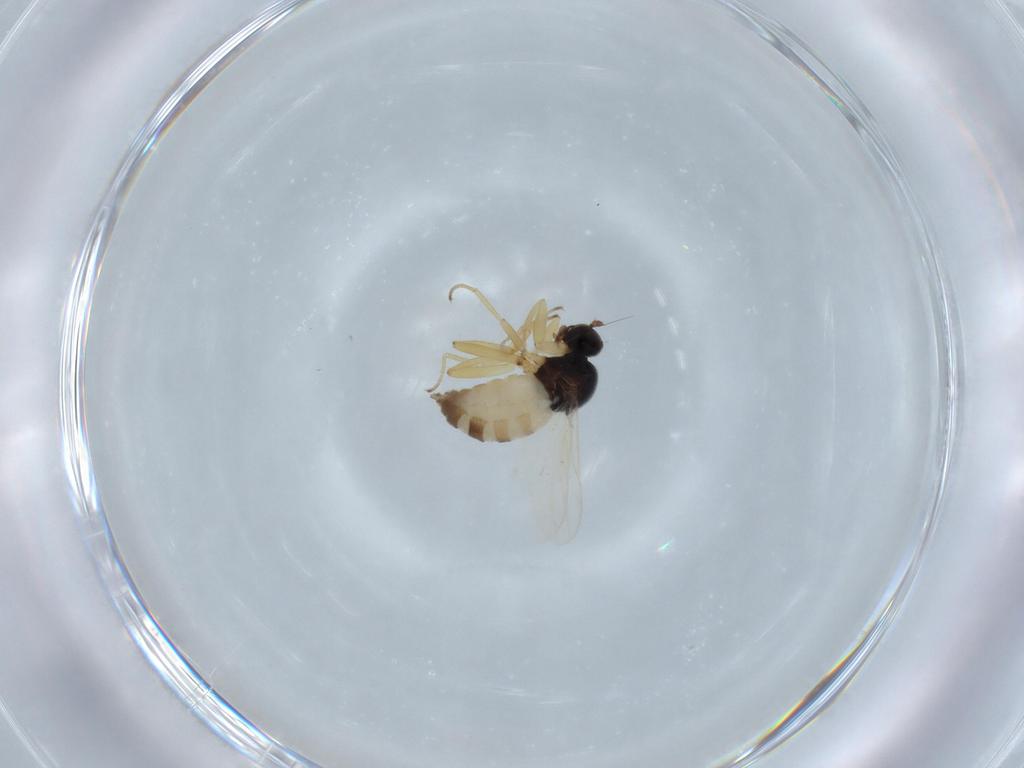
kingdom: Animalia
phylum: Arthropoda
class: Insecta
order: Diptera
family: Hybotidae
